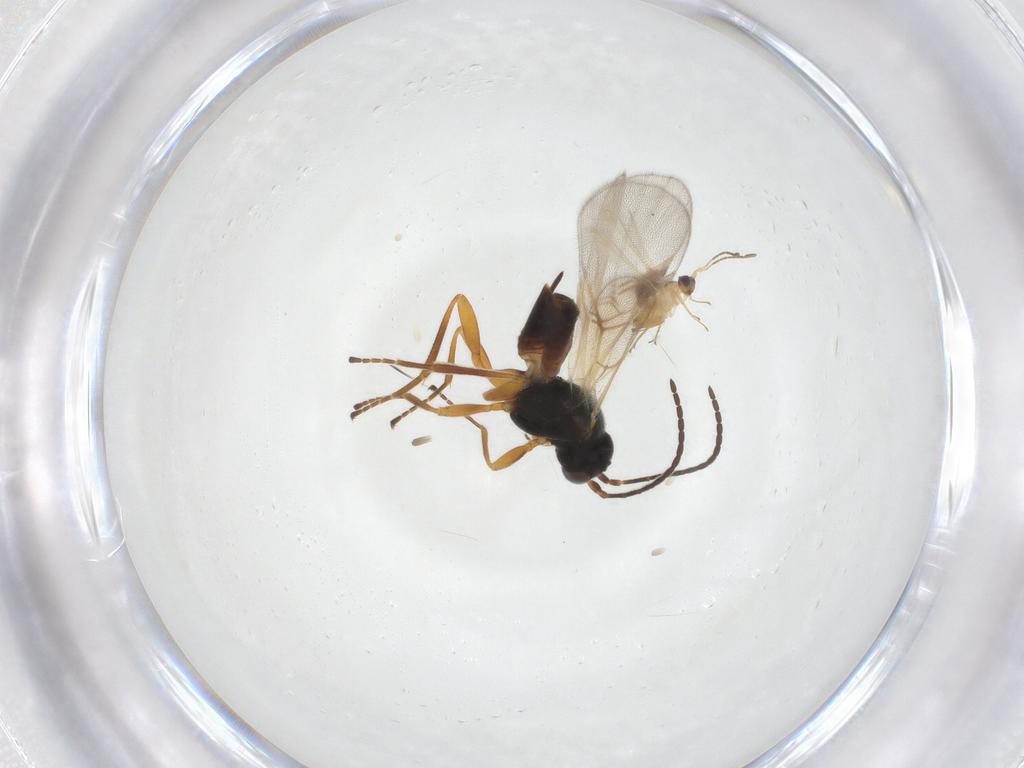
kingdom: Animalia
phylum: Arthropoda
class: Insecta
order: Hymenoptera
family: Braconidae
